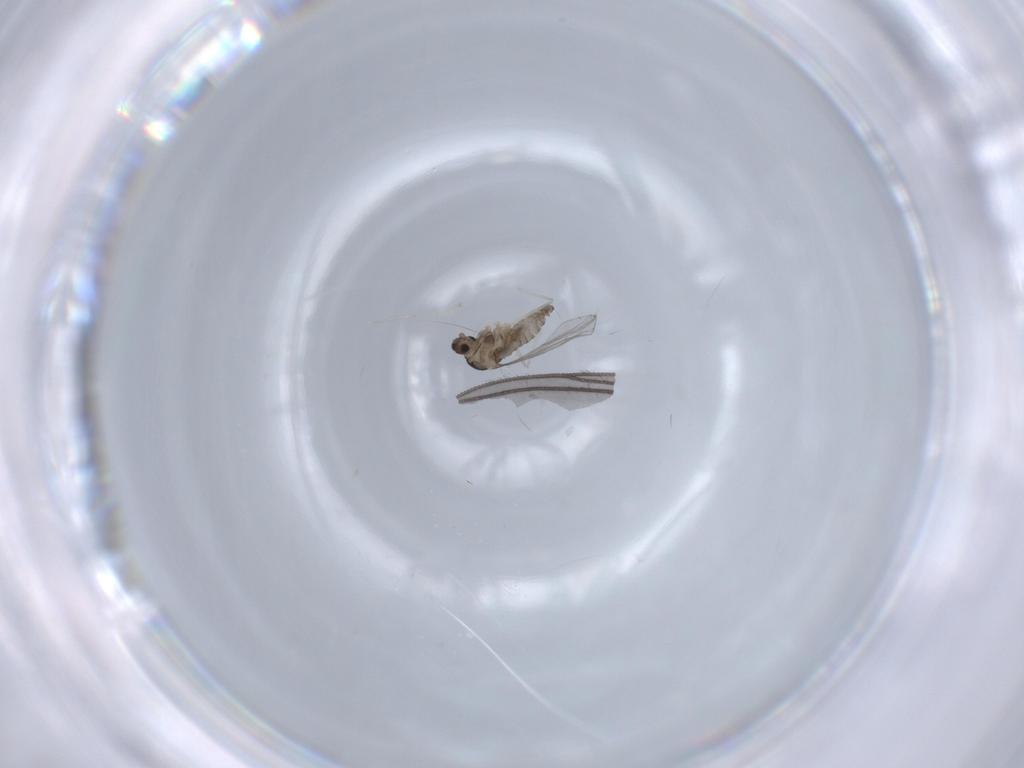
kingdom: Animalia
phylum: Arthropoda
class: Insecta
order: Diptera
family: Cecidomyiidae
